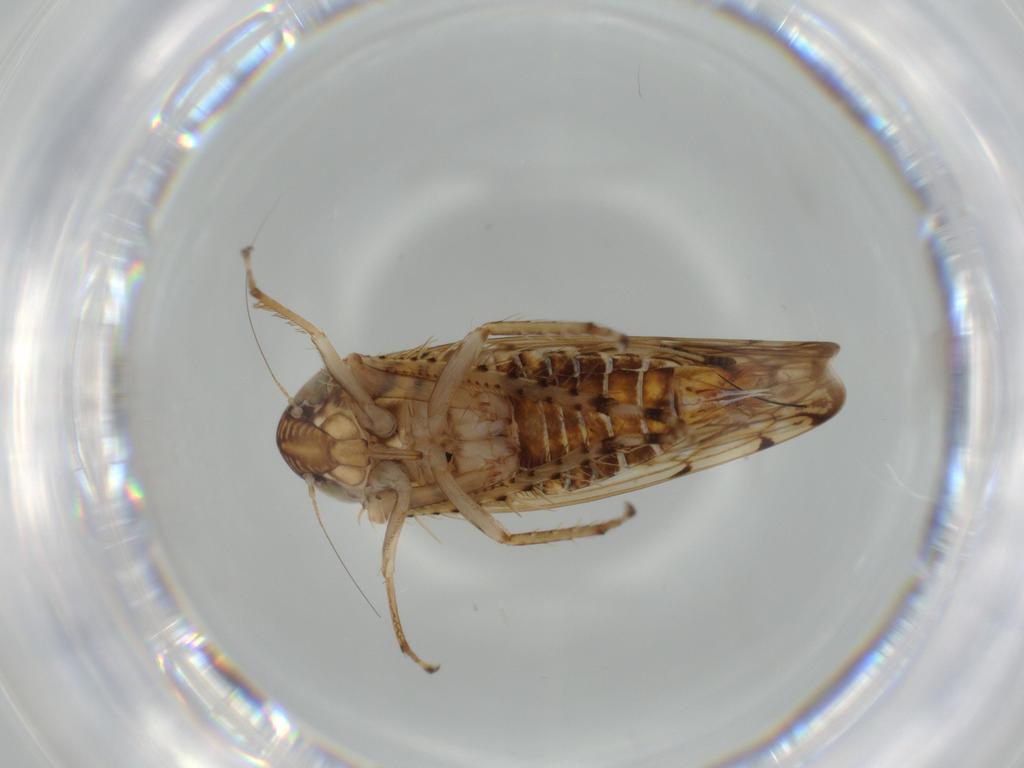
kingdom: Animalia
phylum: Arthropoda
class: Insecta
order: Hemiptera
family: Cicadellidae
